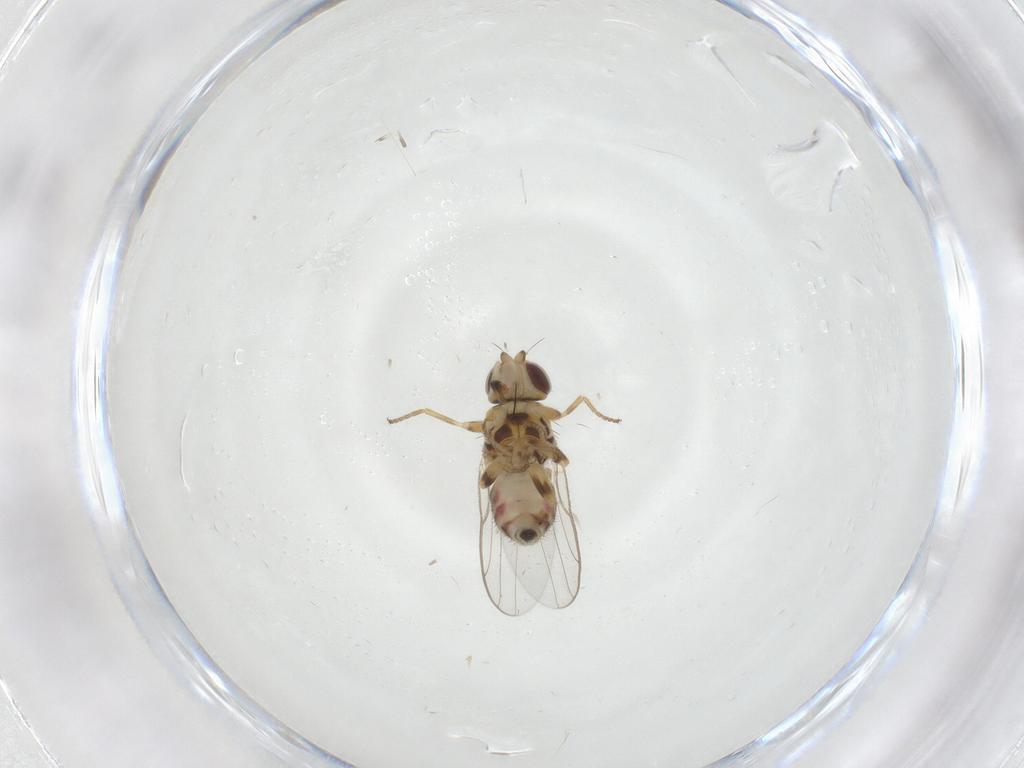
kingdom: Animalia
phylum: Arthropoda
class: Insecta
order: Diptera
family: Chloropidae
